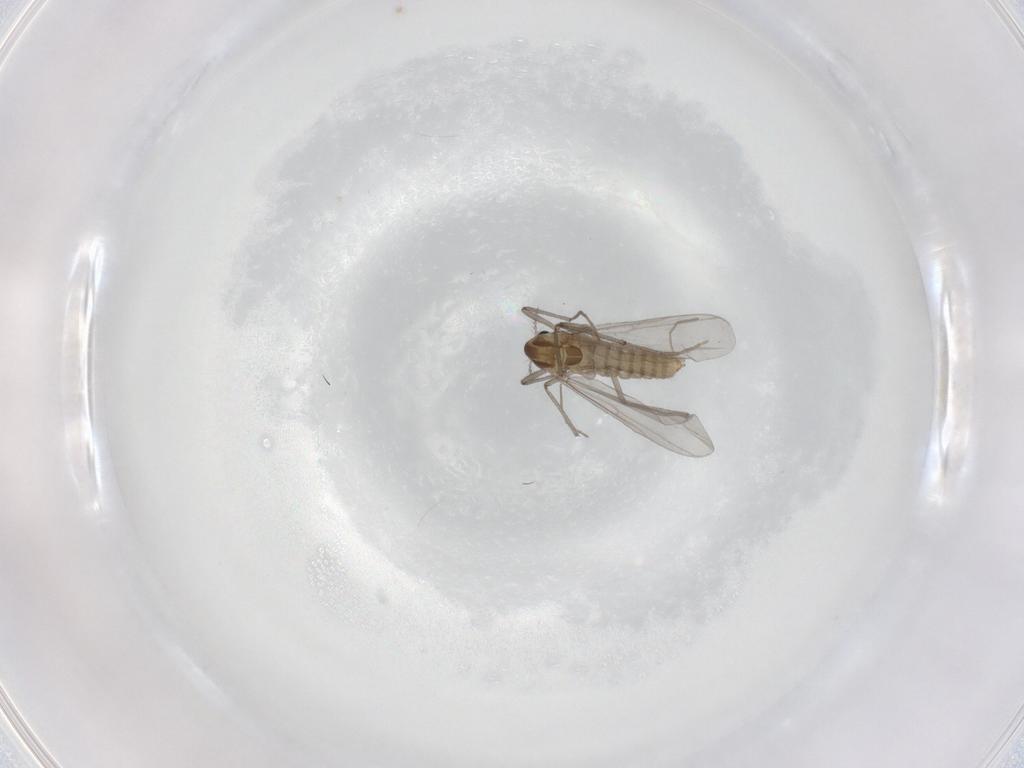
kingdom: Animalia
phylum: Arthropoda
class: Insecta
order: Diptera
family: Chironomidae
